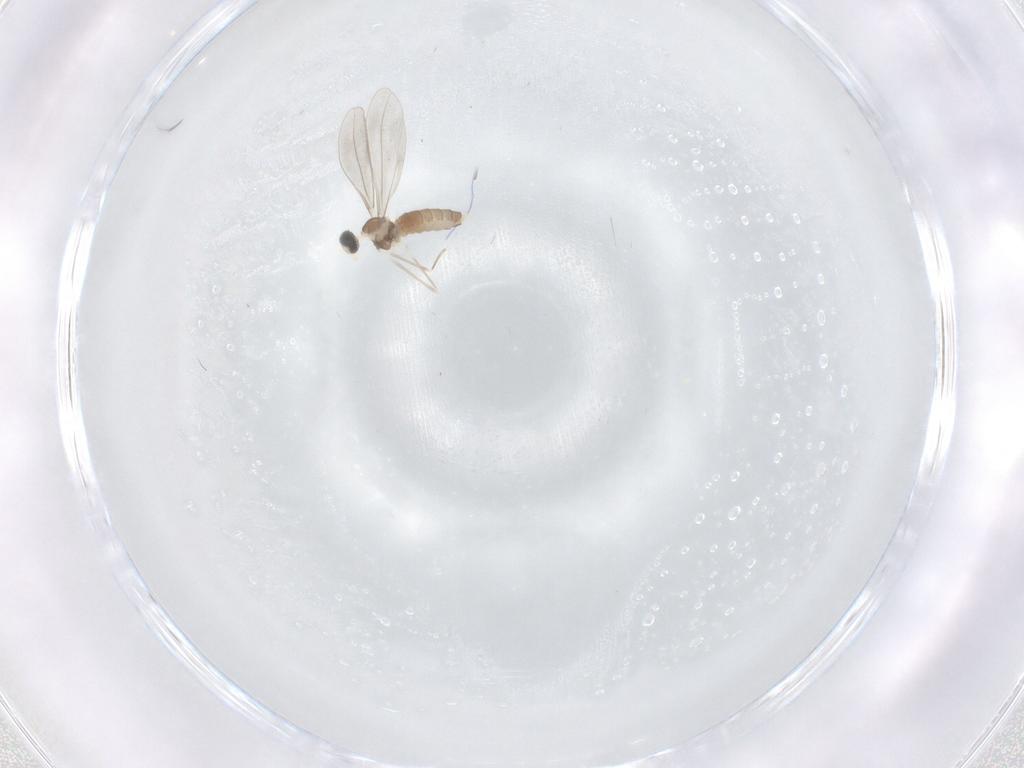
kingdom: Animalia
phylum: Arthropoda
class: Insecta
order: Diptera
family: Cecidomyiidae
